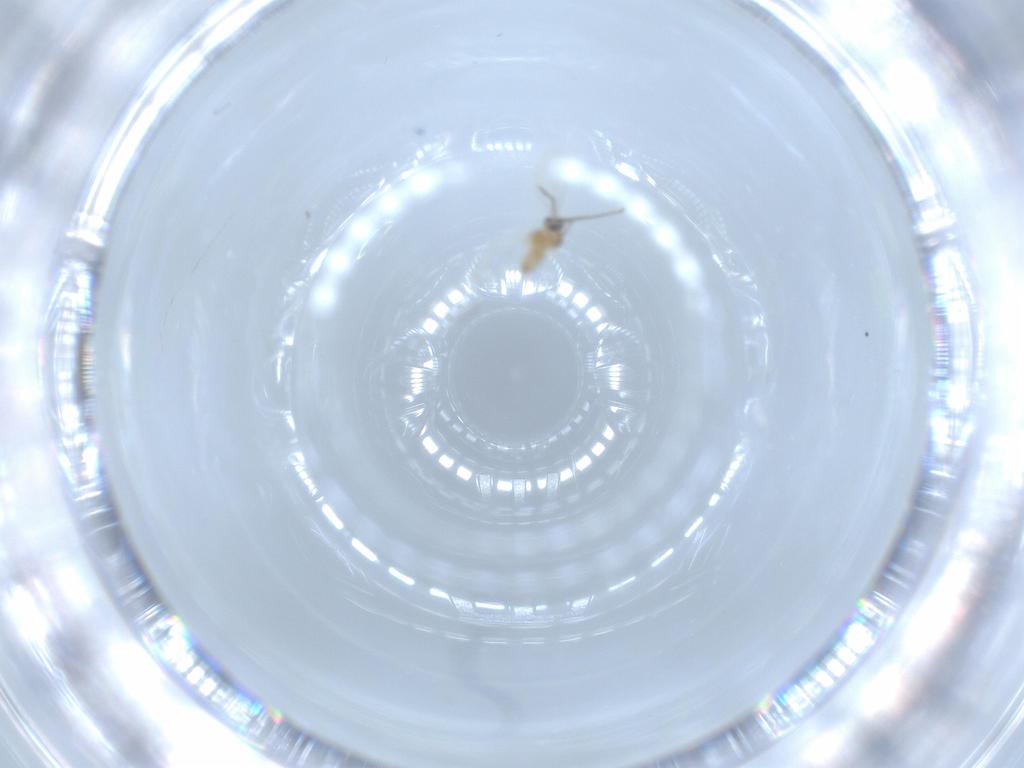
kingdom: Animalia
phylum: Arthropoda
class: Insecta
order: Diptera
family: Cecidomyiidae
